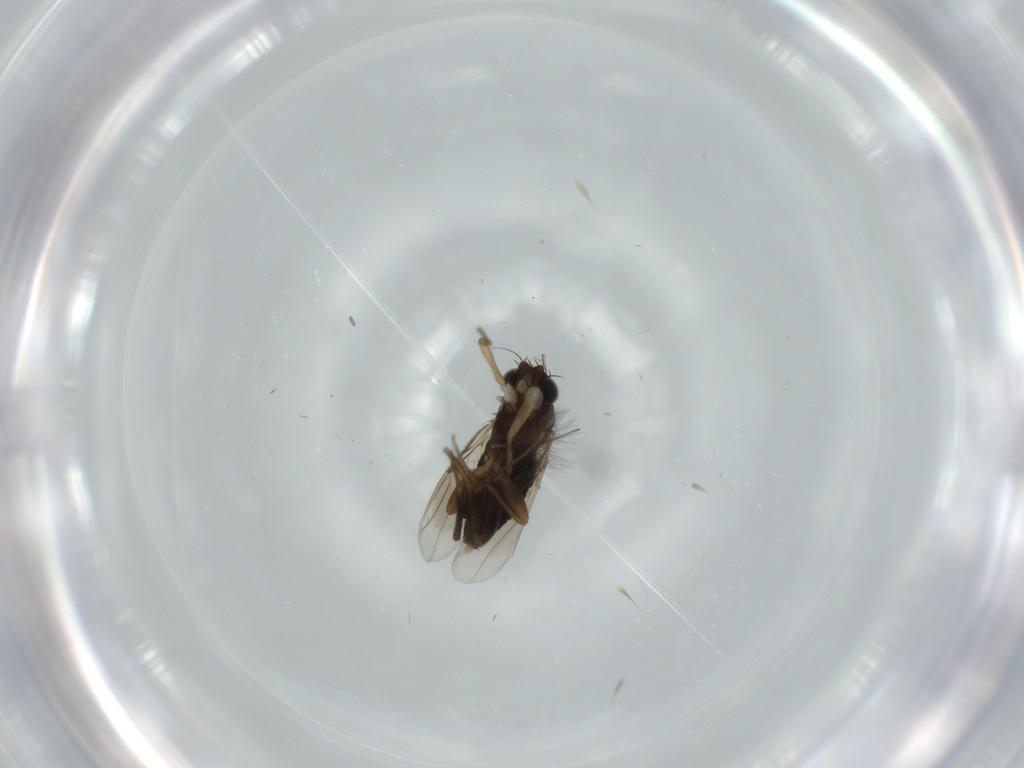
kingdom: Animalia
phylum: Arthropoda
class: Insecta
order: Diptera
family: Phoridae
